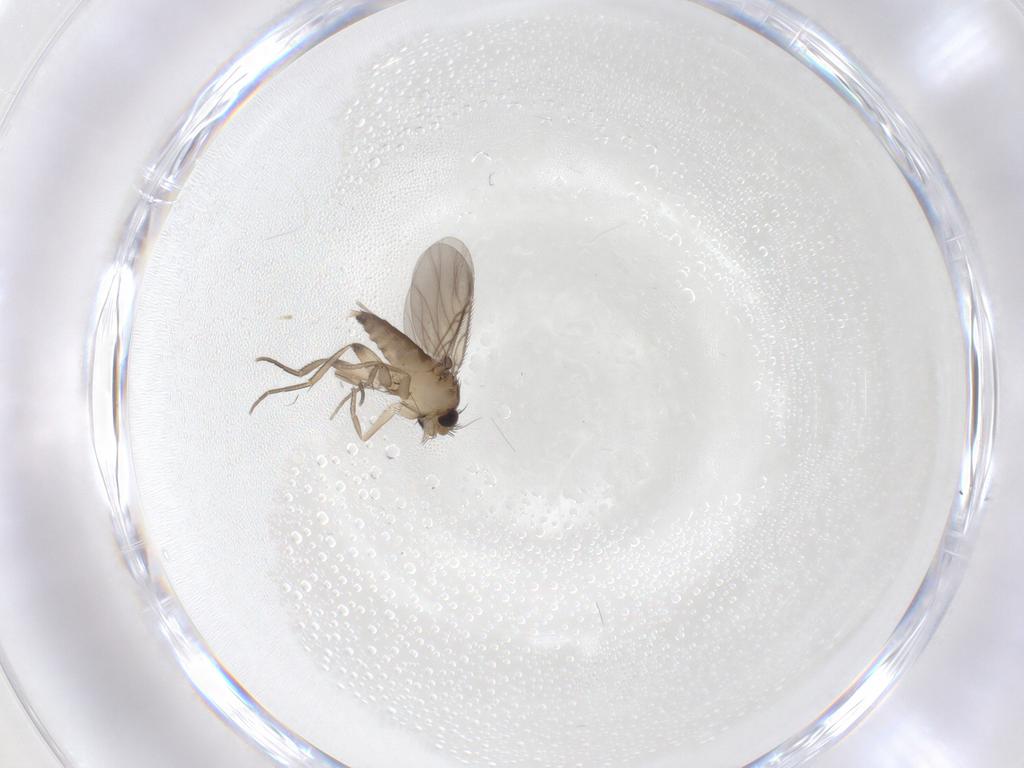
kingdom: Animalia
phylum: Arthropoda
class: Insecta
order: Diptera
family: Phoridae
